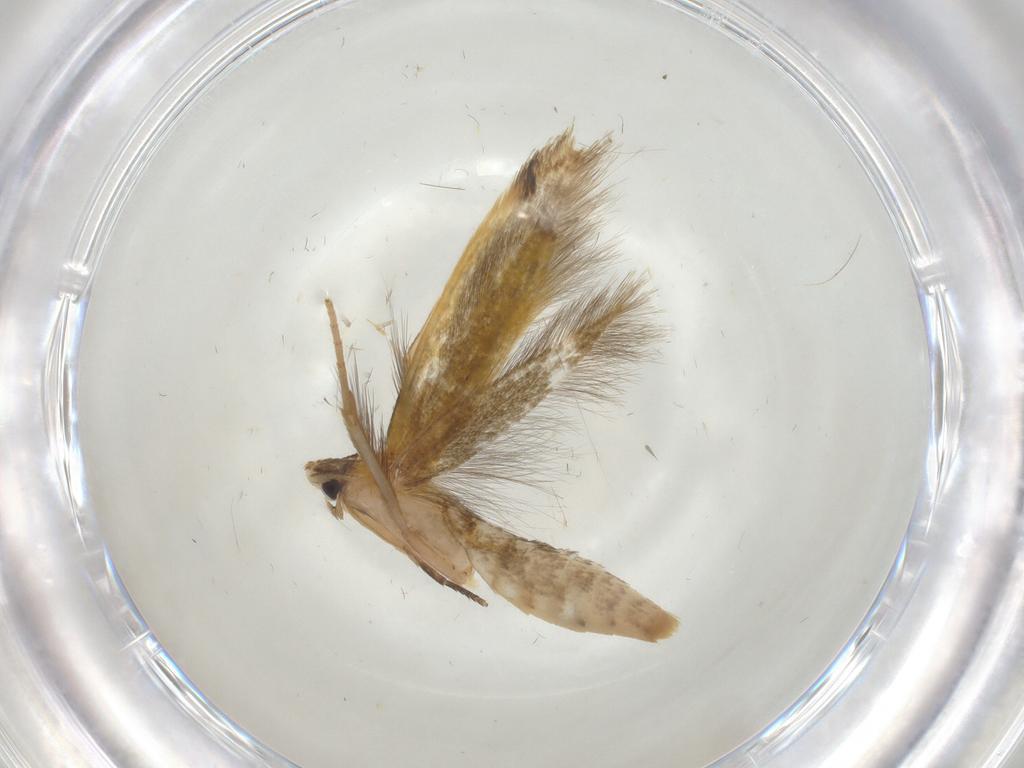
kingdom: Animalia
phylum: Arthropoda
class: Insecta
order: Lepidoptera
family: Tineidae
